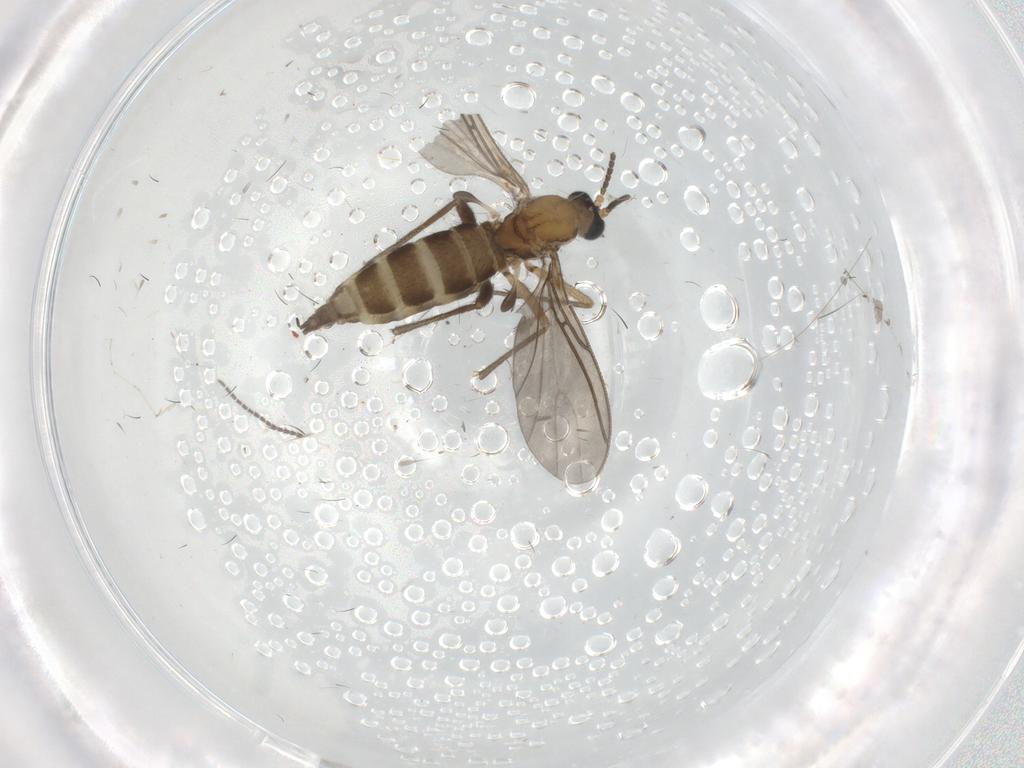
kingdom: Animalia
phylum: Arthropoda
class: Insecta
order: Diptera
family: Sciaridae
